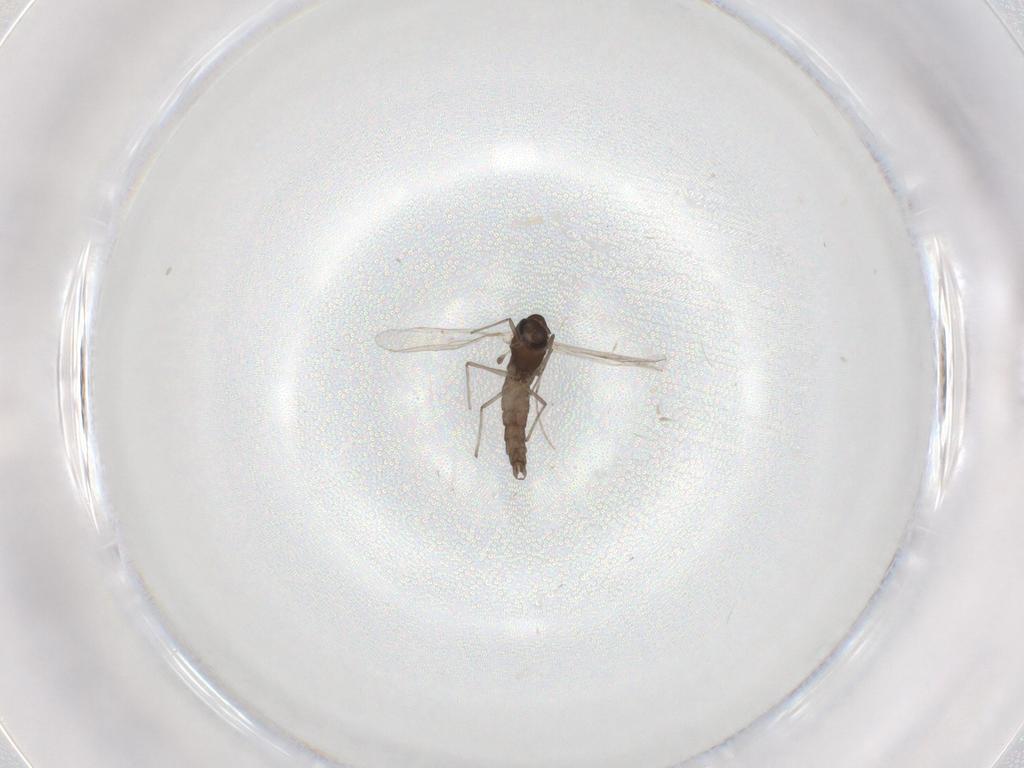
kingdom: Animalia
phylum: Arthropoda
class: Insecta
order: Diptera
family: Chironomidae
